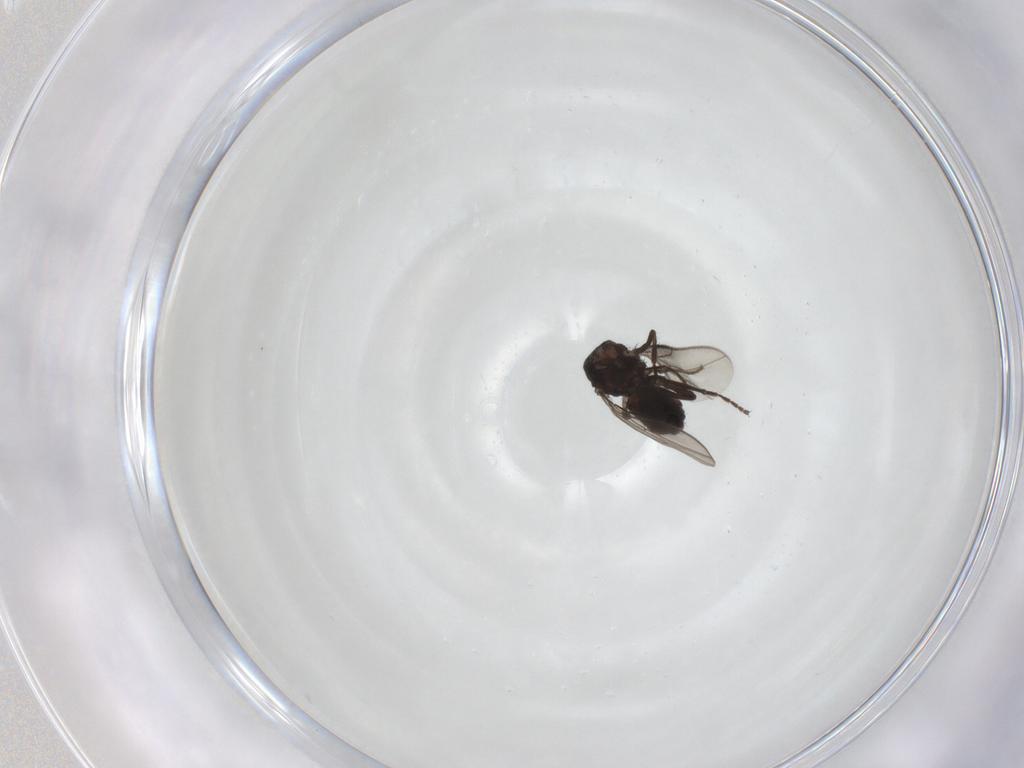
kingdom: Animalia
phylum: Arthropoda
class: Insecta
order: Diptera
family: Sphaeroceridae
